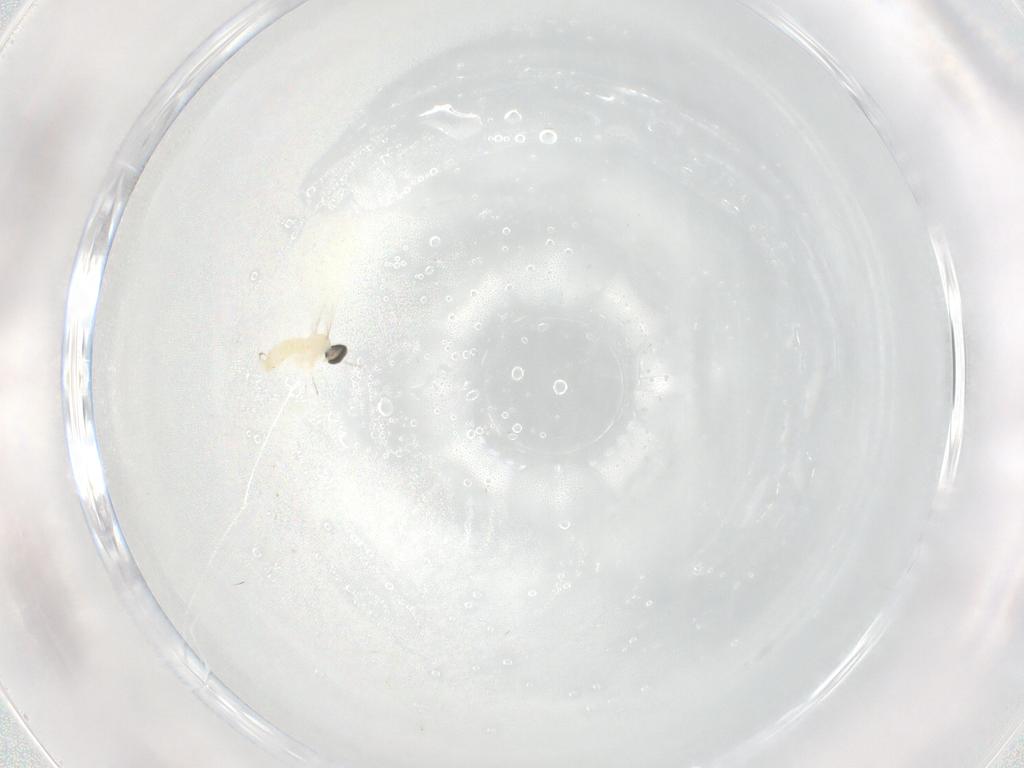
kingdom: Animalia
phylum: Arthropoda
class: Insecta
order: Diptera
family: Cecidomyiidae
